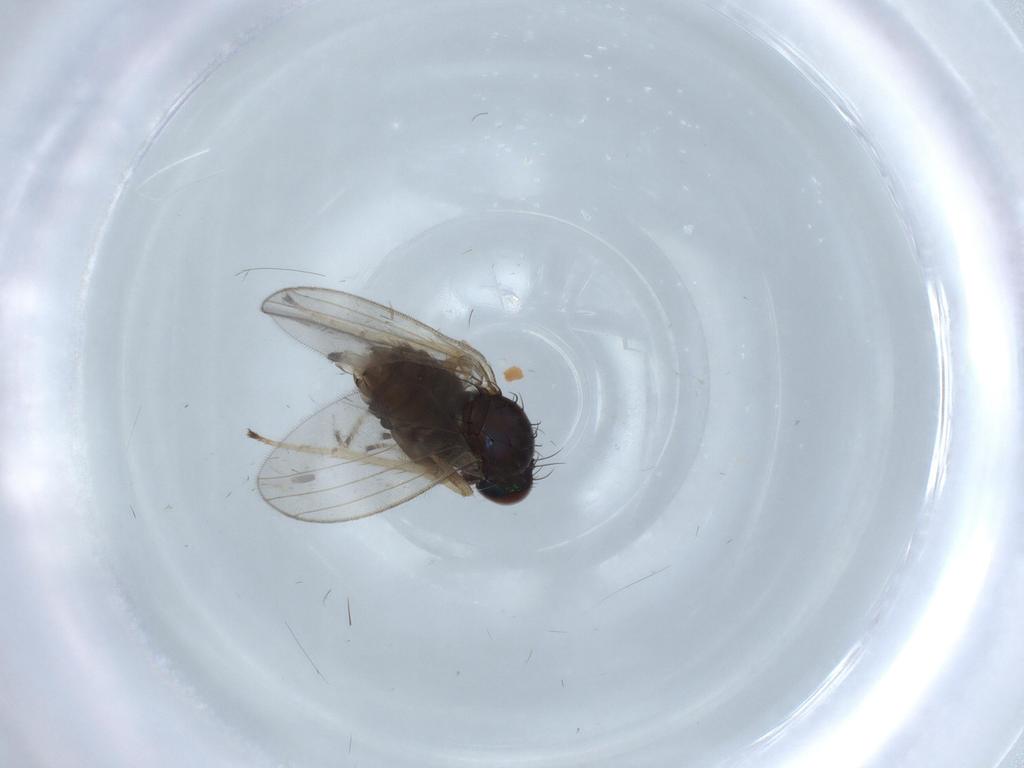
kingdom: Animalia
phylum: Arthropoda
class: Insecta
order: Diptera
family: Dolichopodidae
